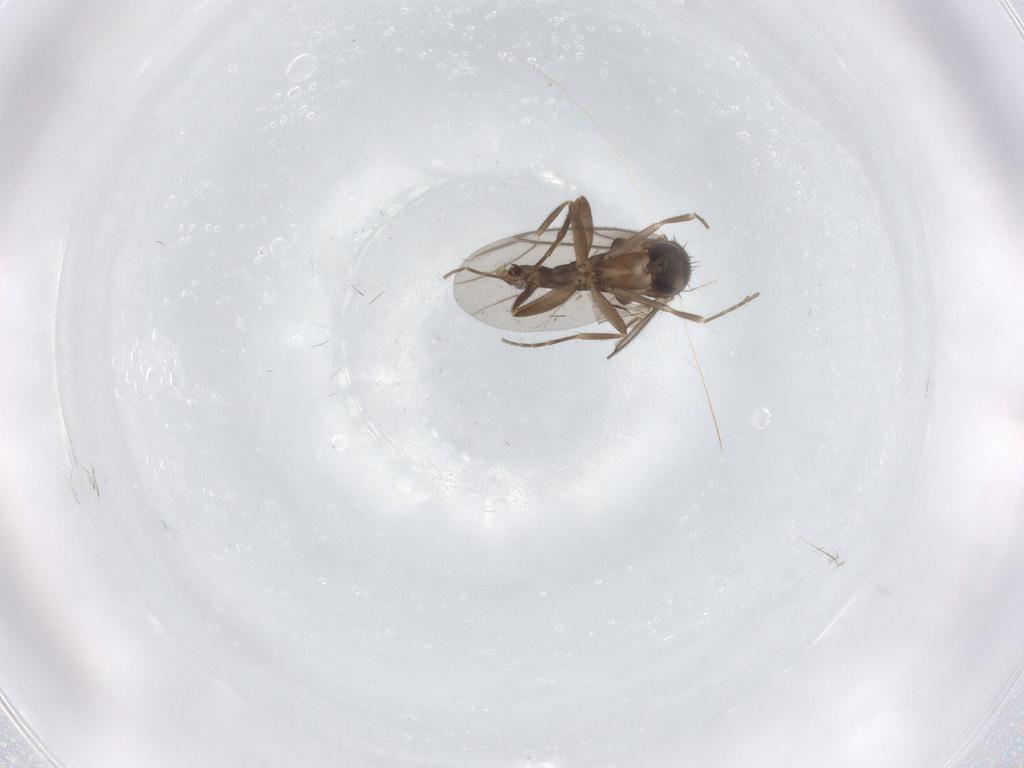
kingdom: Animalia
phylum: Arthropoda
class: Insecta
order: Diptera
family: Phoridae
